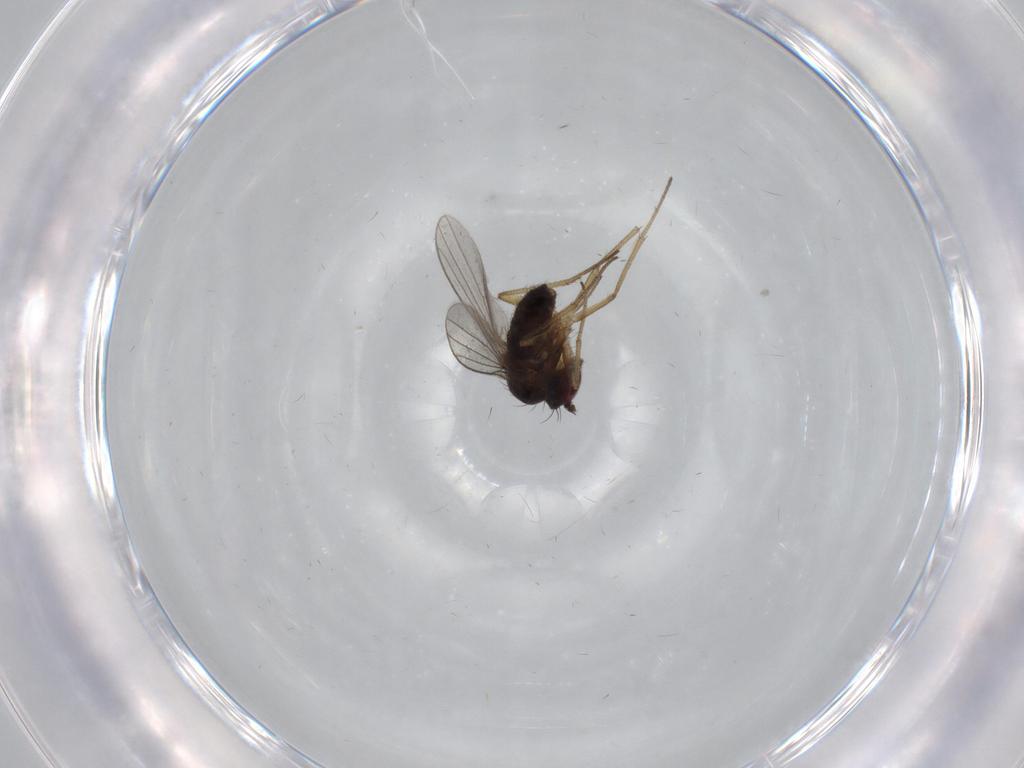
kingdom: Animalia
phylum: Arthropoda
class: Insecta
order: Diptera
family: Dolichopodidae
